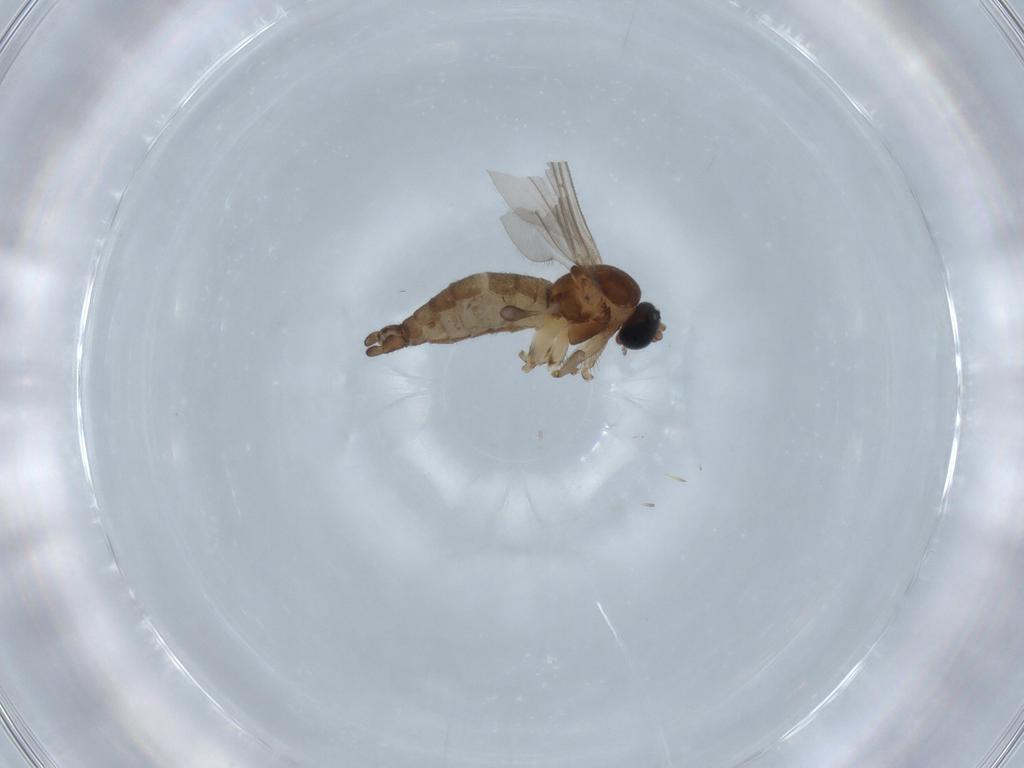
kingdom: Animalia
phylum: Arthropoda
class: Insecta
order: Diptera
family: Sciaridae
